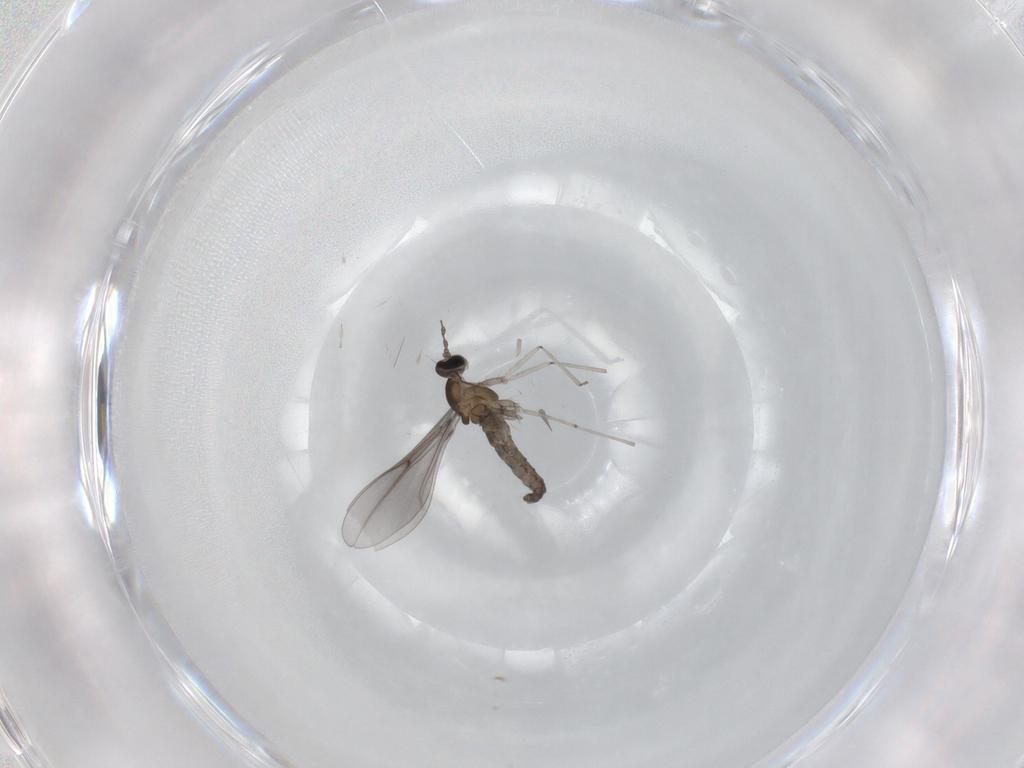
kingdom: Animalia
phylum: Arthropoda
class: Insecta
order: Diptera
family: Cecidomyiidae
